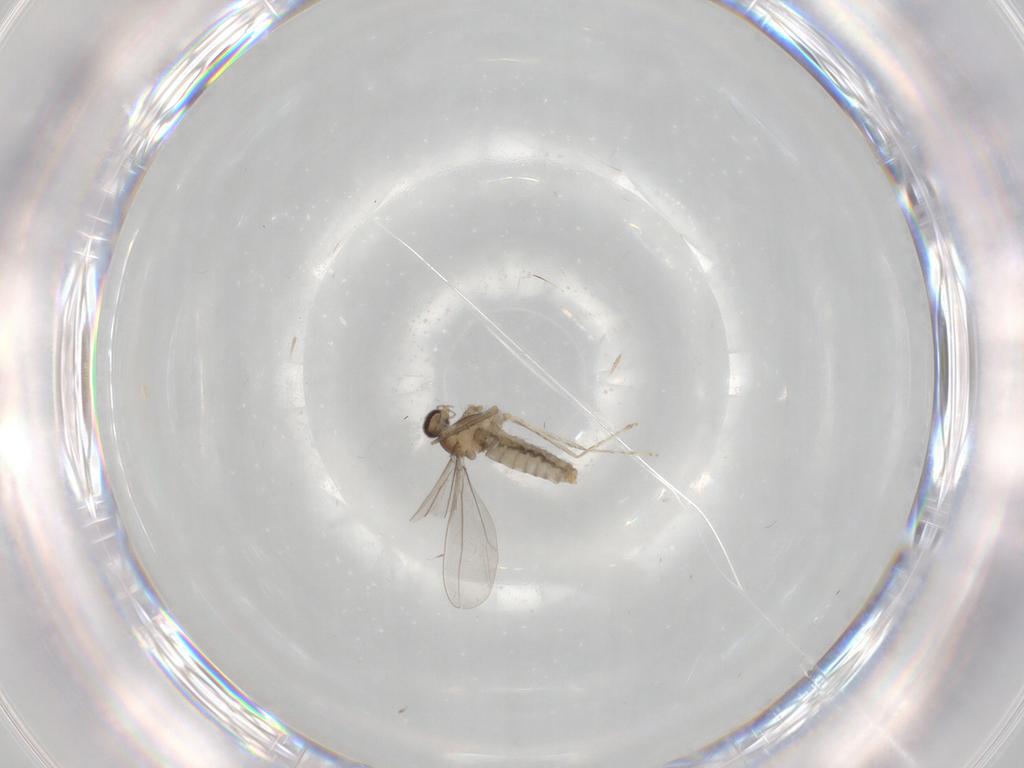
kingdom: Animalia
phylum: Arthropoda
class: Insecta
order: Diptera
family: Cecidomyiidae
